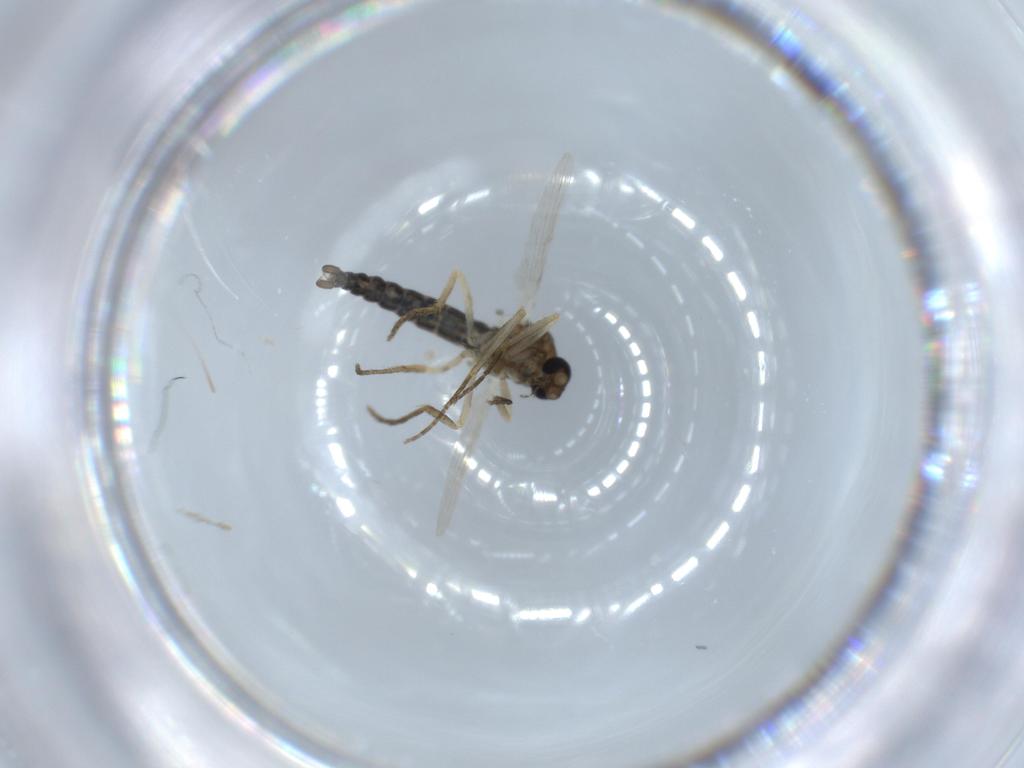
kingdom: Animalia
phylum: Arthropoda
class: Insecta
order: Diptera
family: Ceratopogonidae
